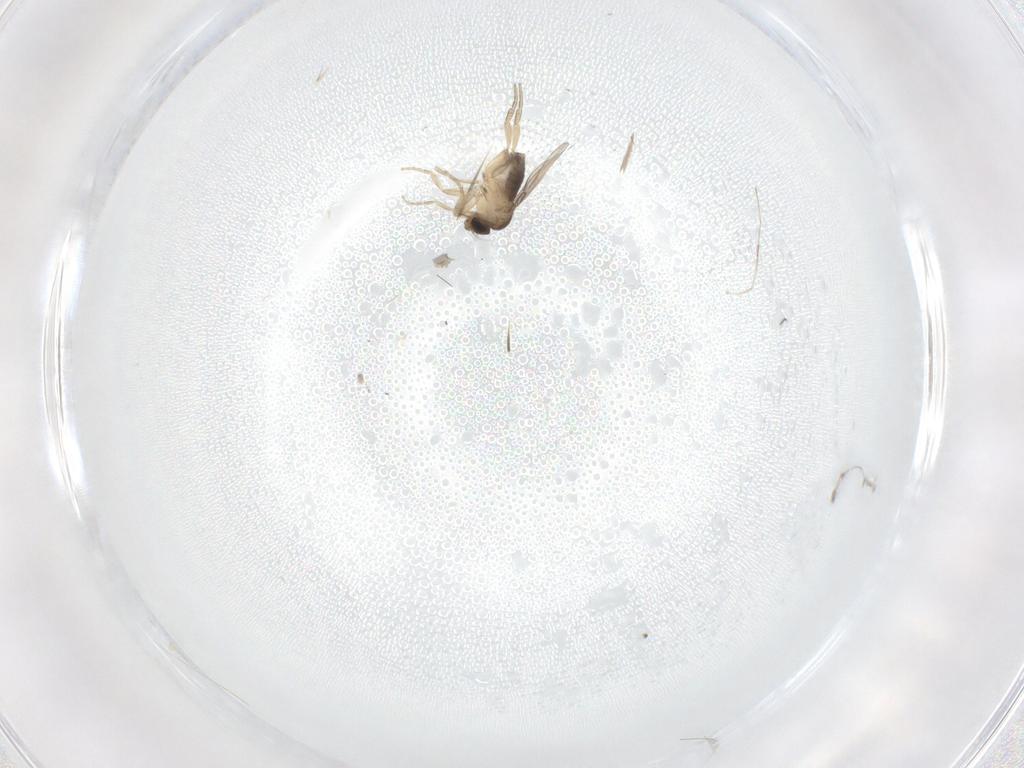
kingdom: Animalia
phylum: Arthropoda
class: Insecta
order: Diptera
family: Phoridae
